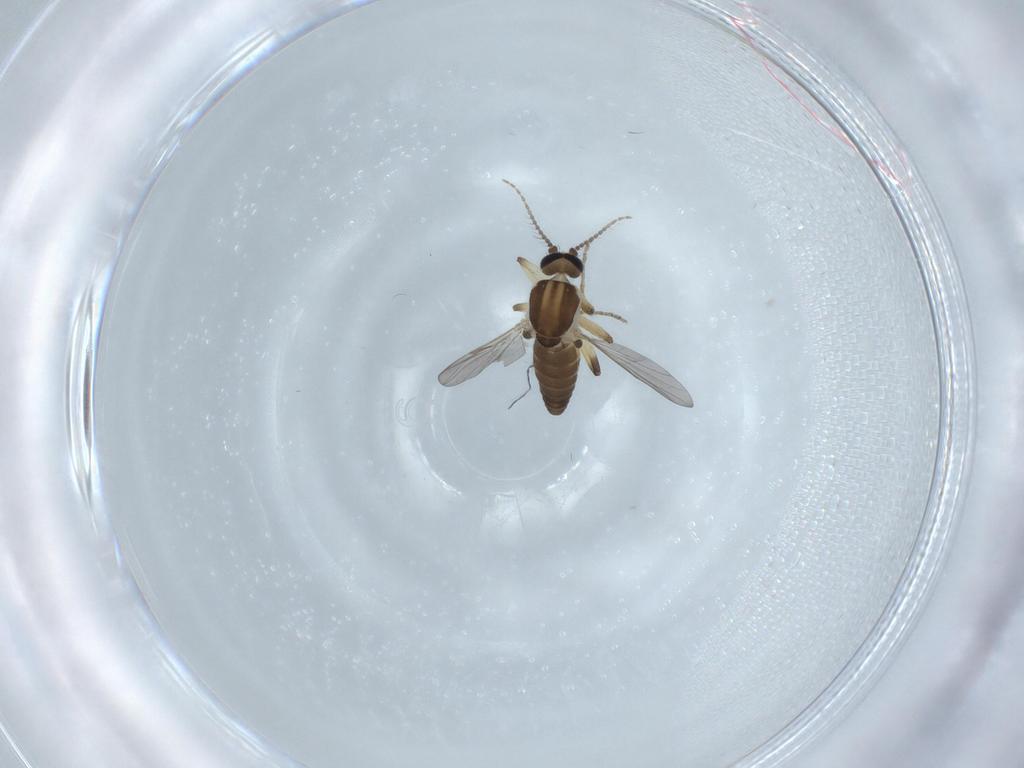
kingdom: Animalia
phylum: Arthropoda
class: Insecta
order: Diptera
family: Ceratopogonidae
